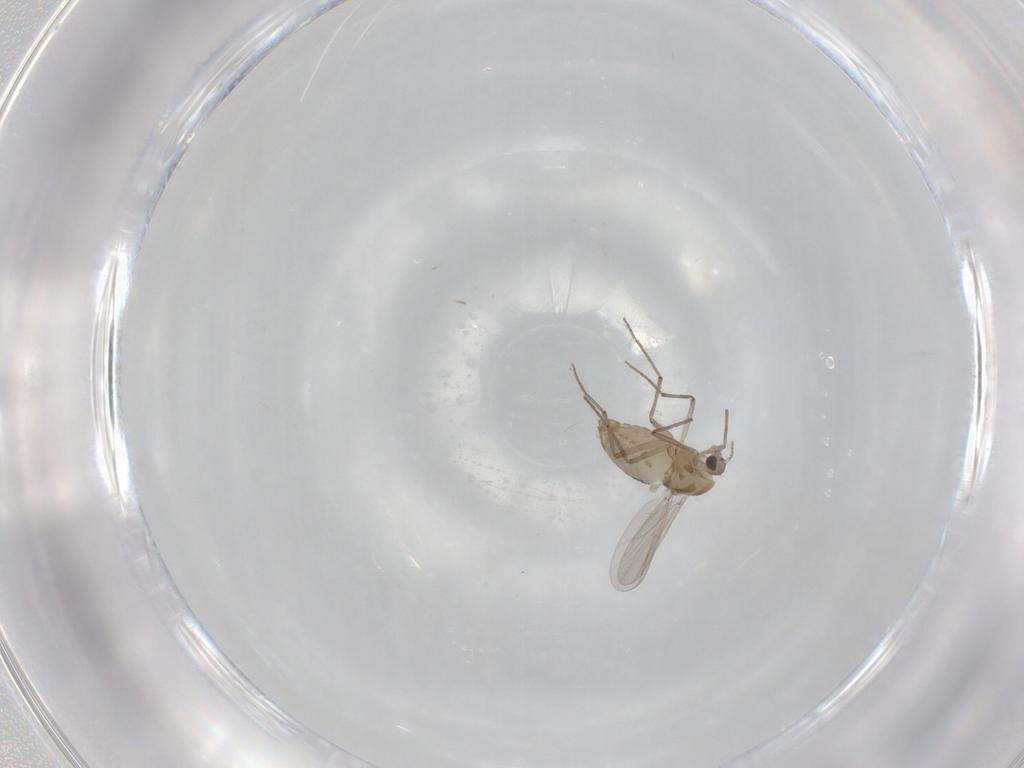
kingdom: Animalia
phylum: Arthropoda
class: Insecta
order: Diptera
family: Chironomidae
